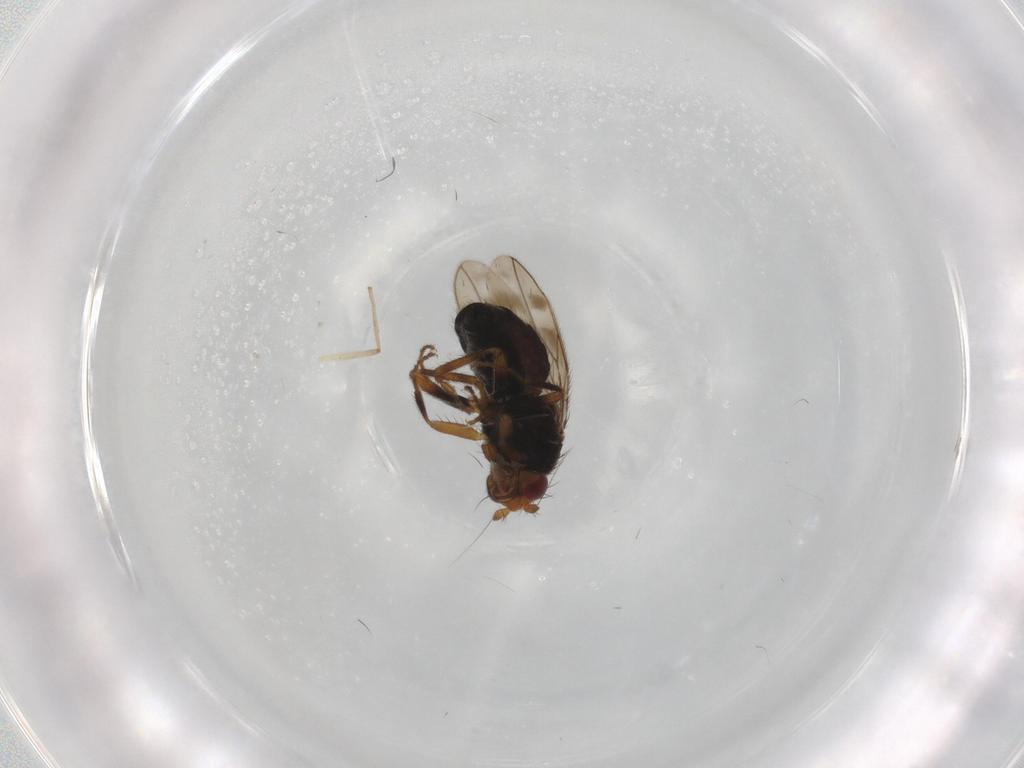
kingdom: Animalia
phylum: Arthropoda
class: Insecta
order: Diptera
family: Sphaeroceridae
